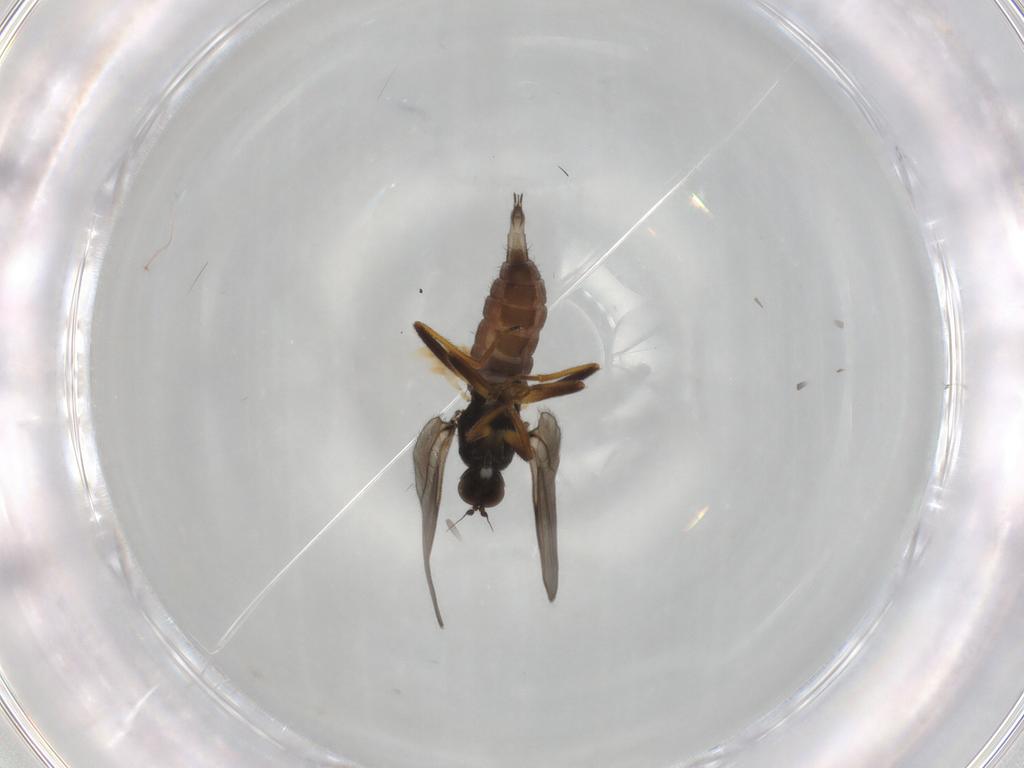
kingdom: Animalia
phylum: Arthropoda
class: Insecta
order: Diptera
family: Hybotidae
